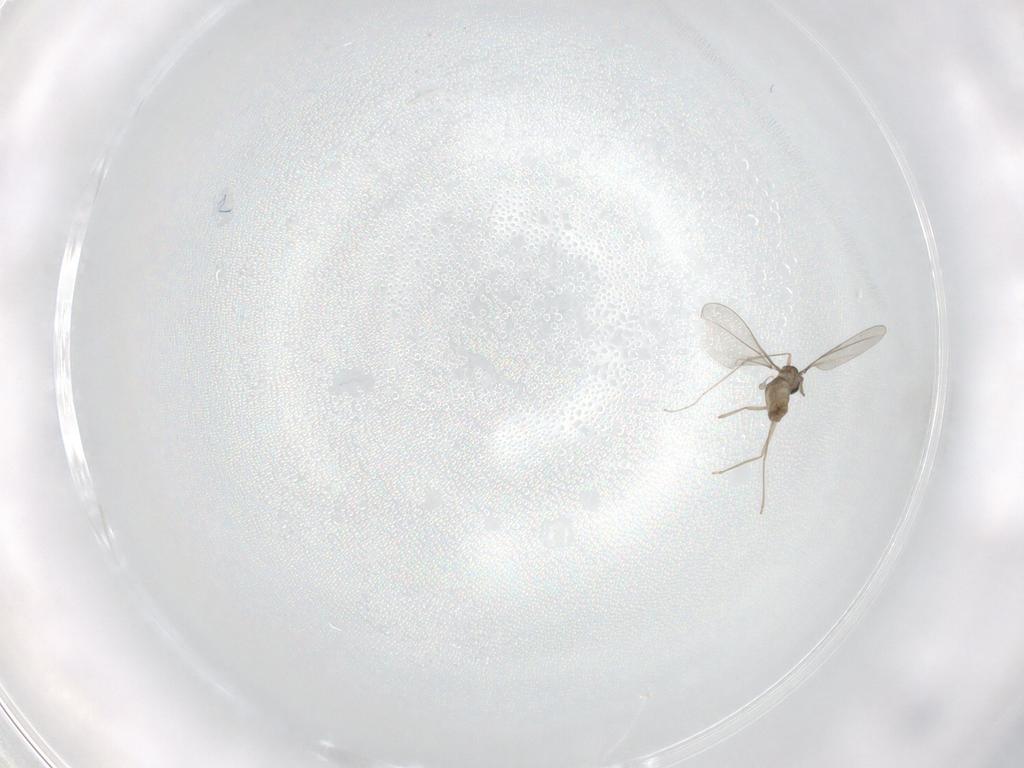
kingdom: Animalia
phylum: Arthropoda
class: Insecta
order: Diptera
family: Cecidomyiidae
